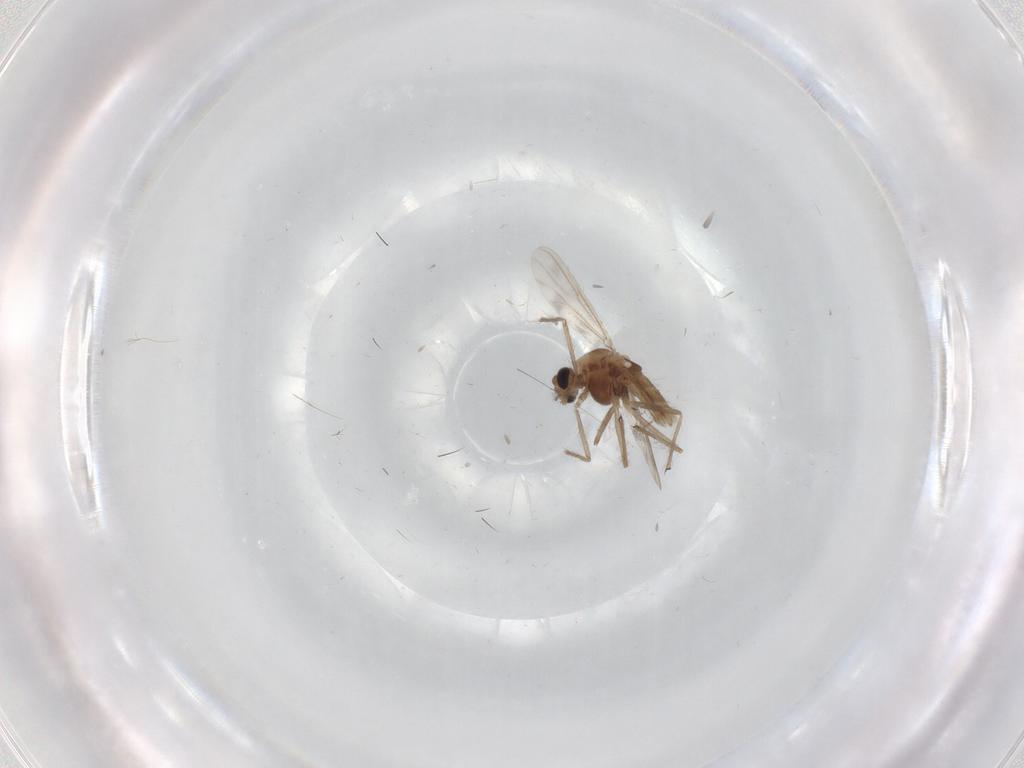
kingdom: Animalia
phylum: Arthropoda
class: Insecta
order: Diptera
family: Chironomidae
